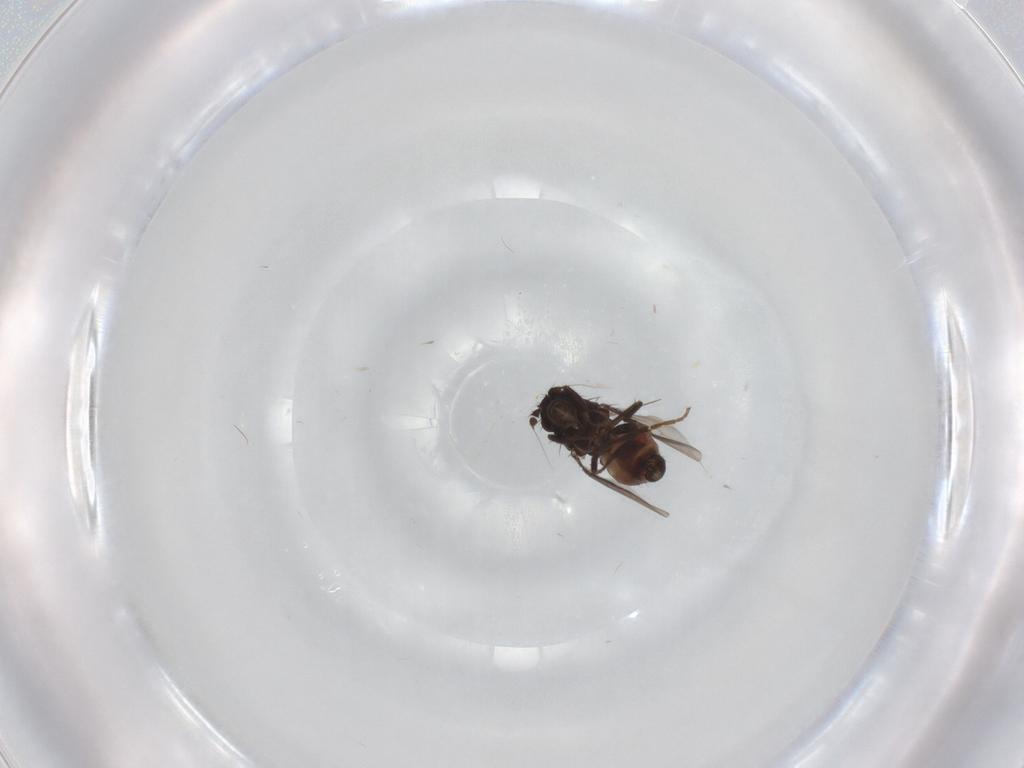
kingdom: Animalia
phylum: Arthropoda
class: Insecta
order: Diptera
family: Sphaeroceridae
